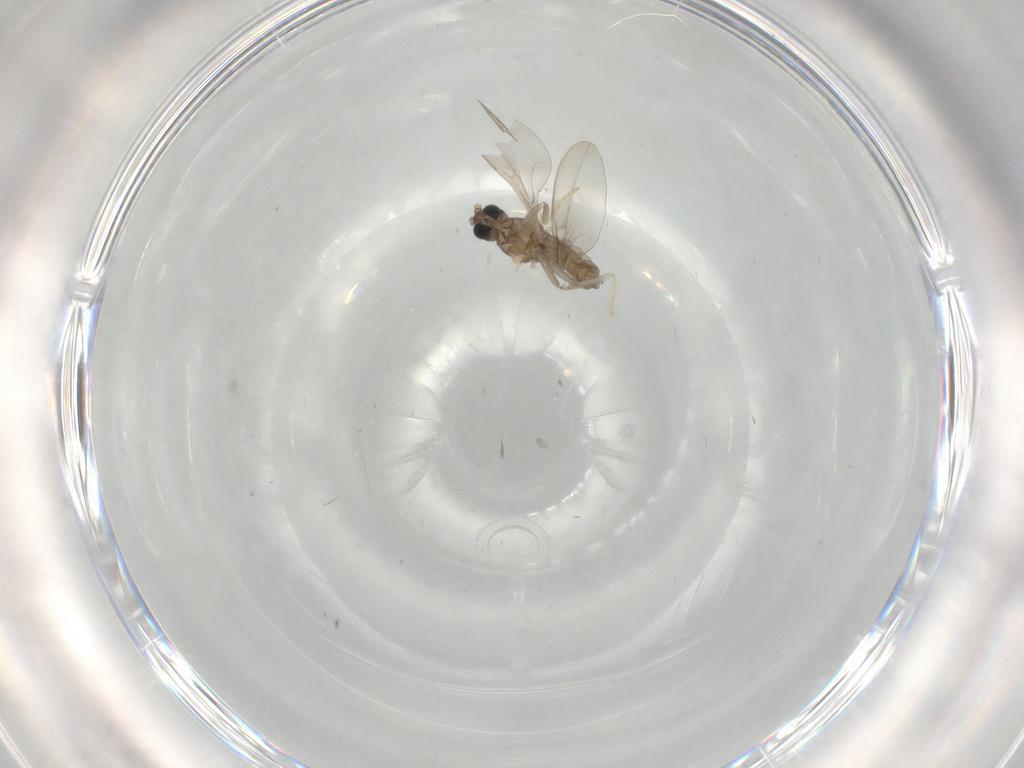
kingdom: Animalia
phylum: Arthropoda
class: Insecta
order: Diptera
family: Cecidomyiidae
